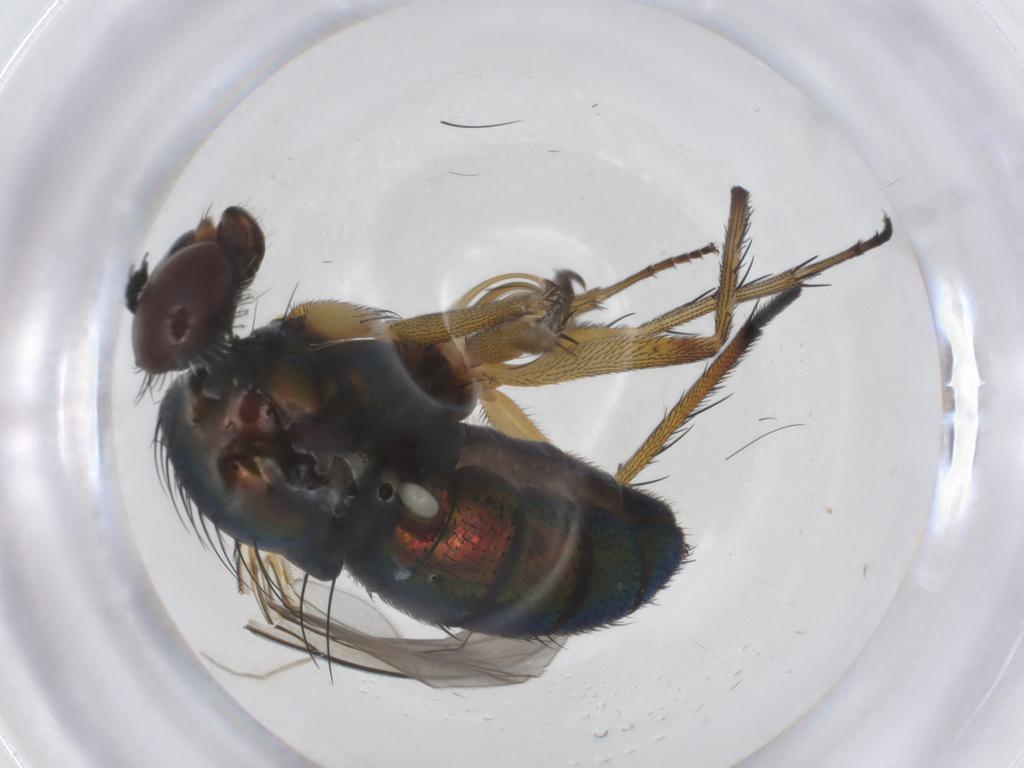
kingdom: Animalia
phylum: Arthropoda
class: Insecta
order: Diptera
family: Dolichopodidae
